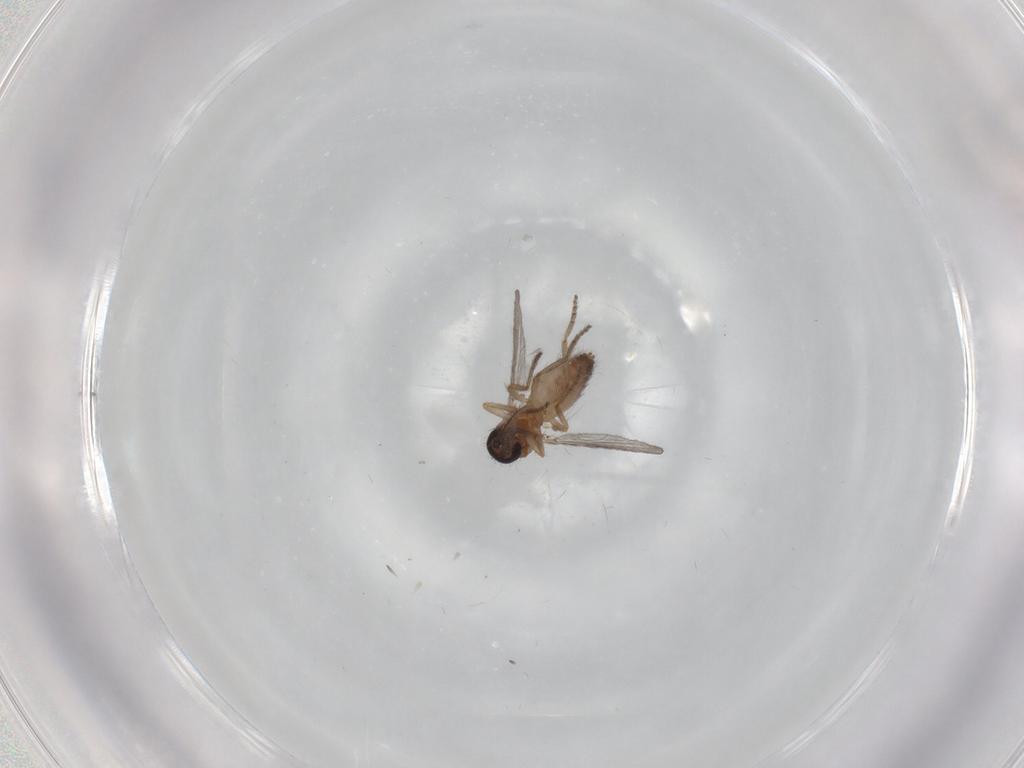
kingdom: Animalia
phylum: Arthropoda
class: Insecta
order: Diptera
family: Ceratopogonidae
